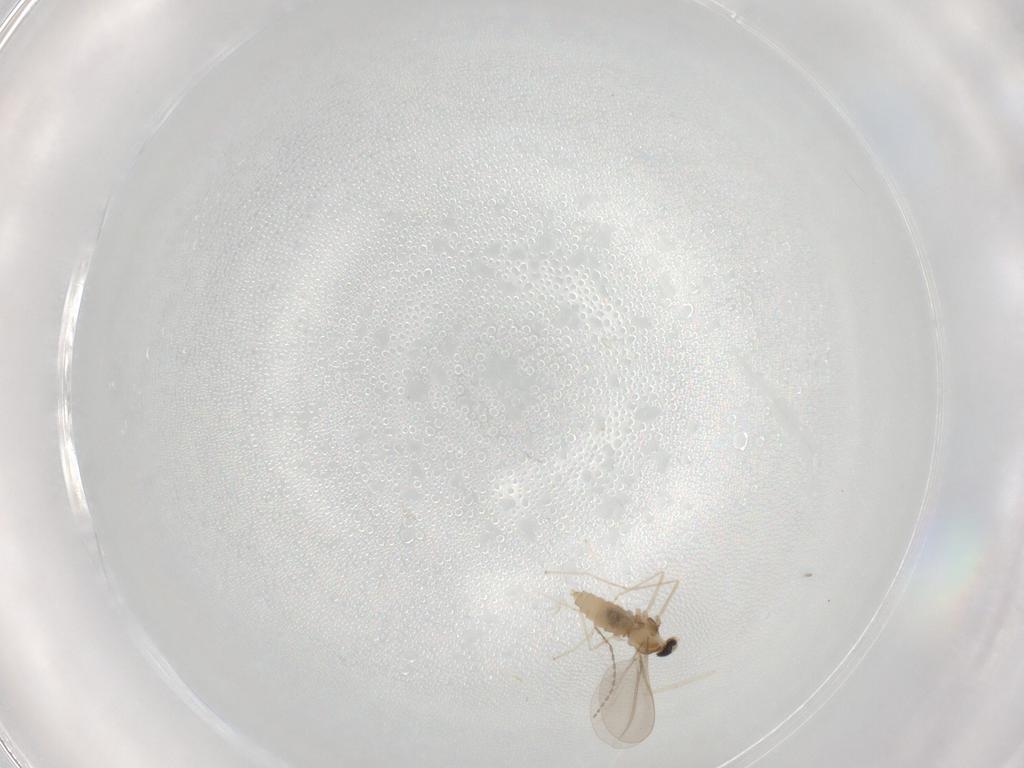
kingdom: Animalia
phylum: Arthropoda
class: Insecta
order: Diptera
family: Cecidomyiidae
